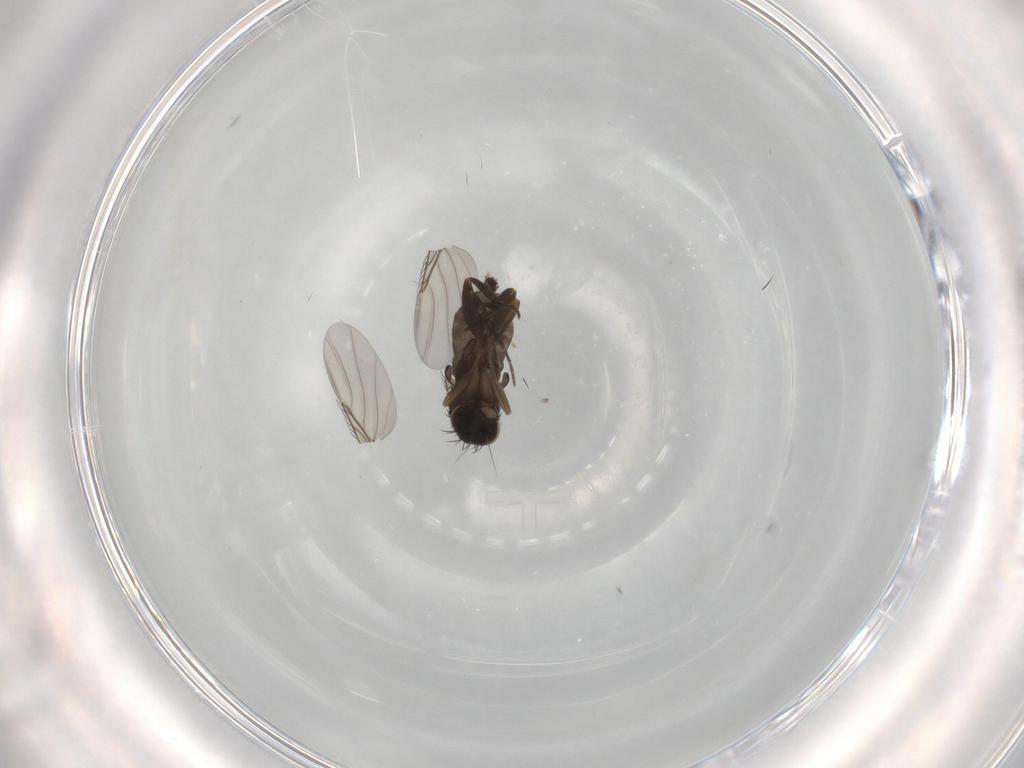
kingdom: Animalia
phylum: Arthropoda
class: Insecta
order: Diptera
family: Phoridae
